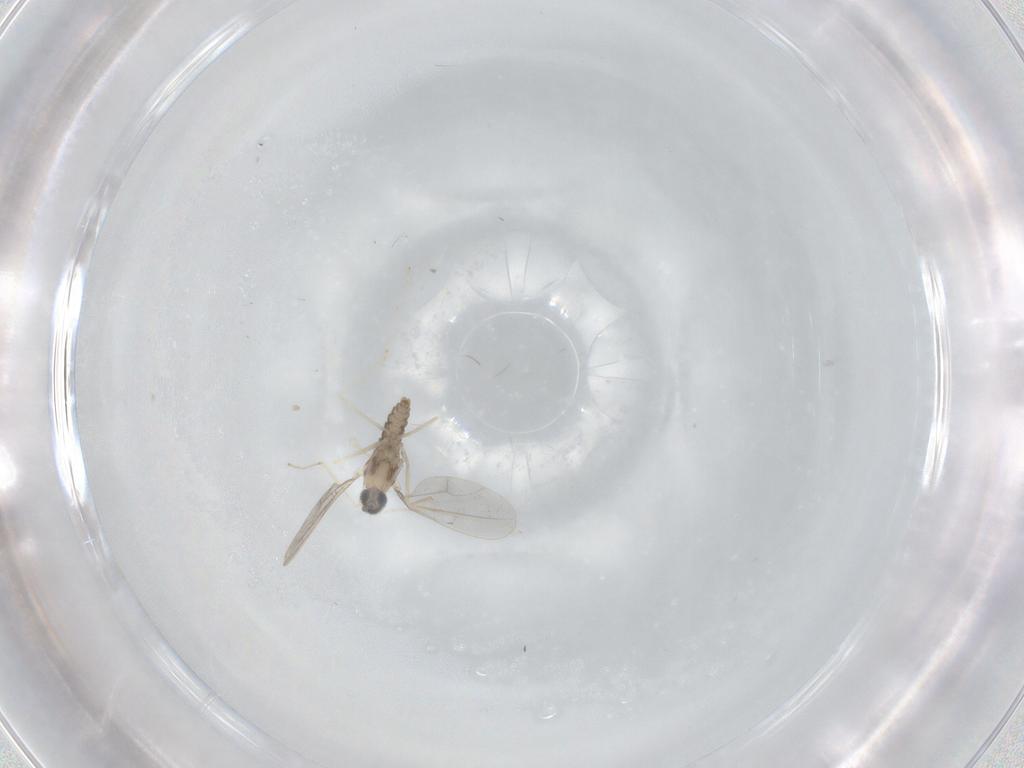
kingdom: Animalia
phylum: Arthropoda
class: Insecta
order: Diptera
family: Cecidomyiidae
